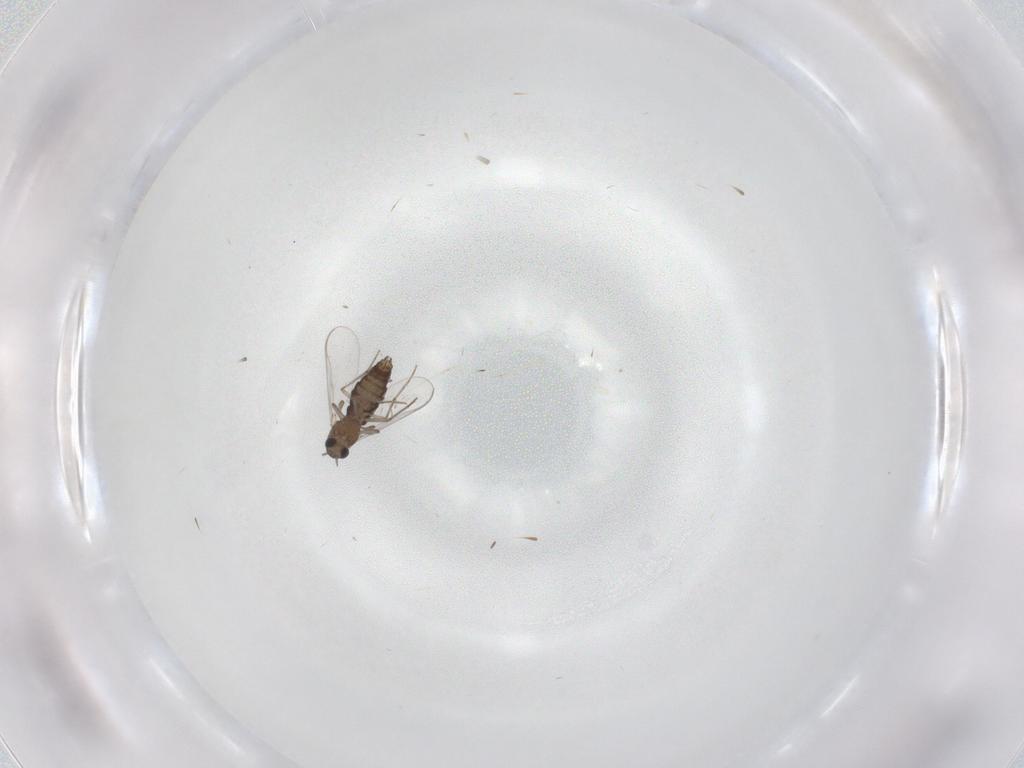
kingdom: Animalia
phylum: Arthropoda
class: Insecta
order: Diptera
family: Chironomidae
